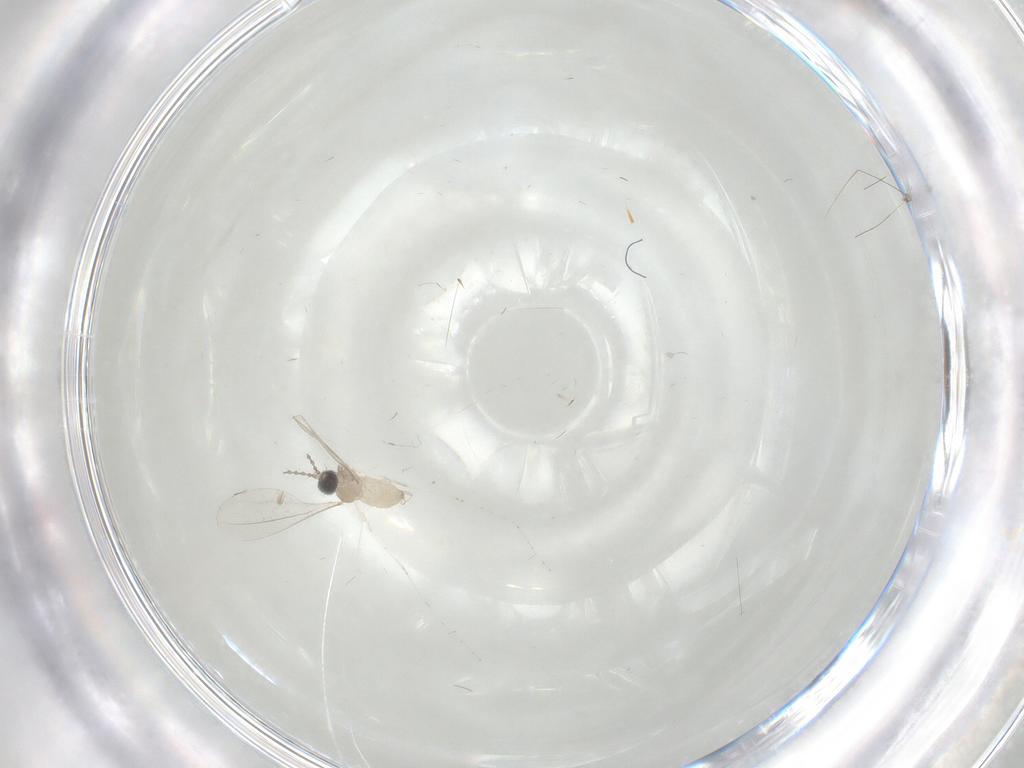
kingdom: Animalia
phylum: Arthropoda
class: Insecta
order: Diptera
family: Cecidomyiidae
